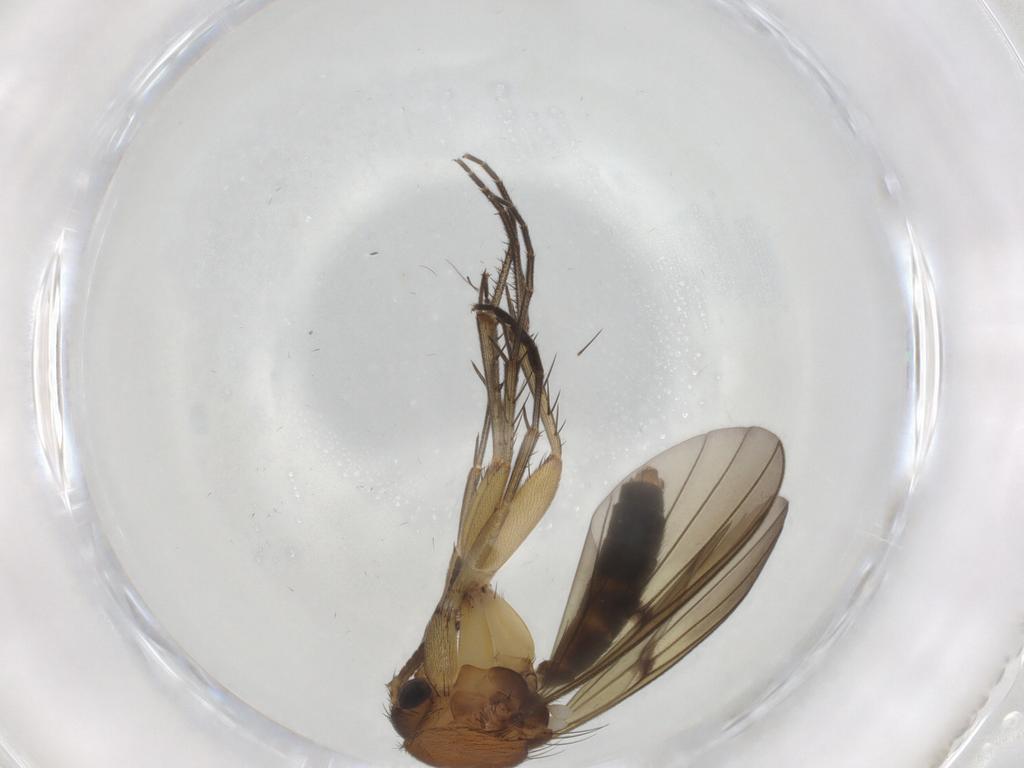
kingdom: Animalia
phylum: Arthropoda
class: Insecta
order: Diptera
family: Mycetophilidae
